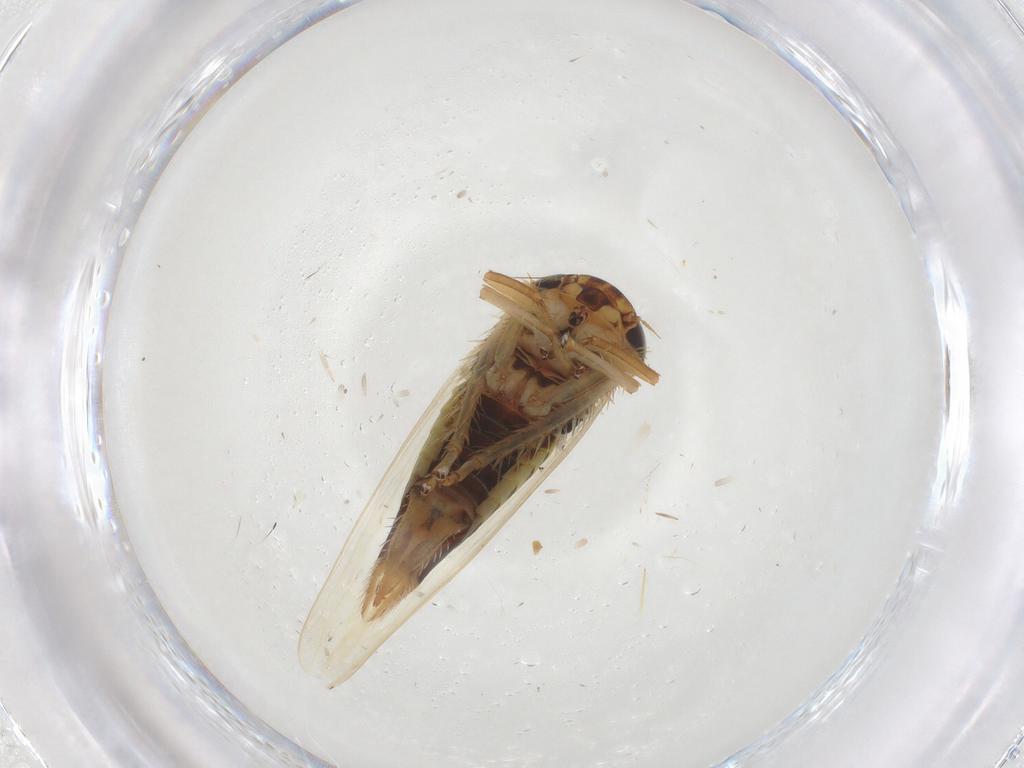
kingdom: Animalia
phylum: Arthropoda
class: Insecta
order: Hemiptera
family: Cicadellidae
